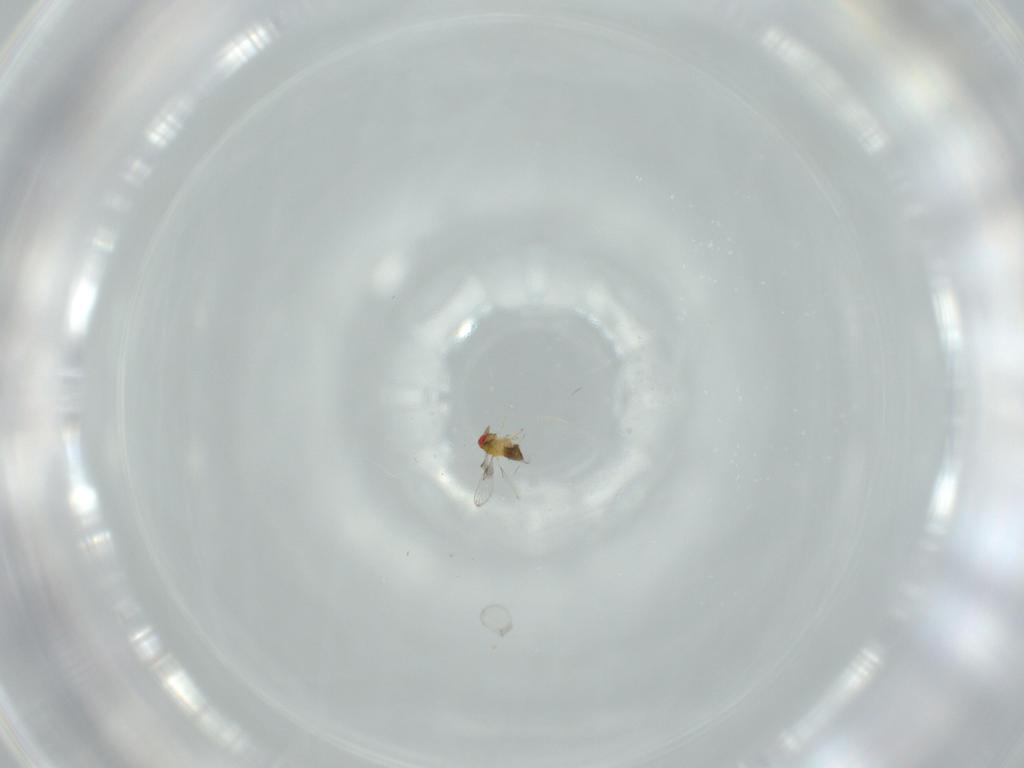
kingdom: Animalia
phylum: Arthropoda
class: Insecta
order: Hymenoptera
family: Trichogrammatidae
